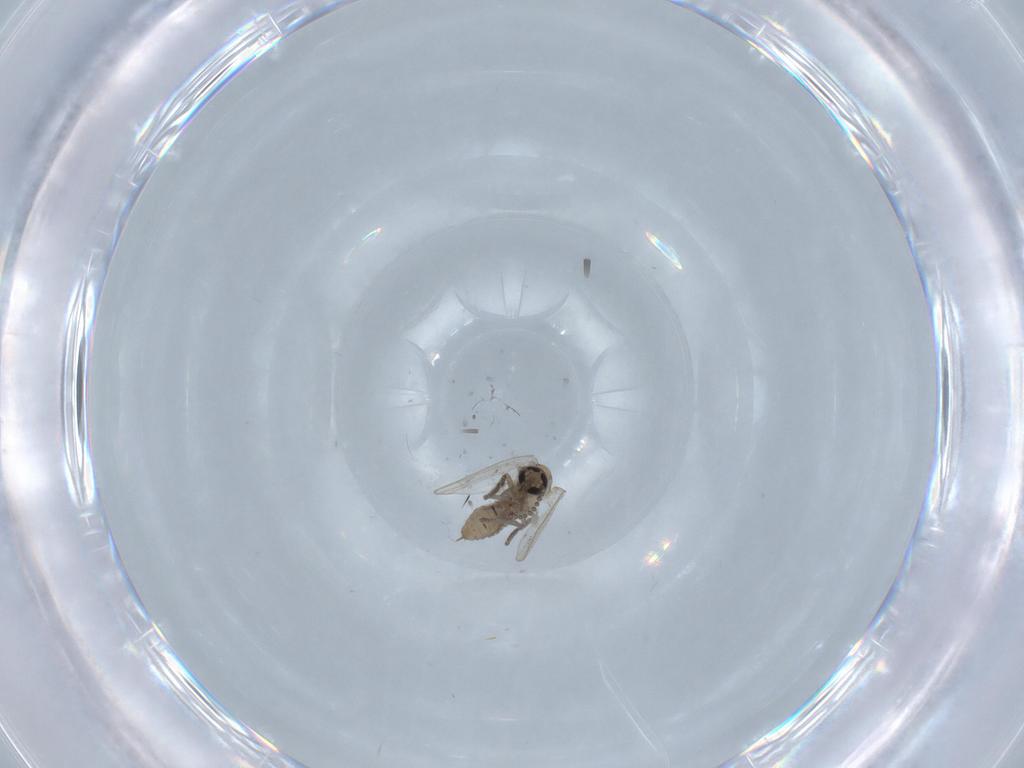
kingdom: Animalia
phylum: Arthropoda
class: Insecta
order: Diptera
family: Psychodidae
